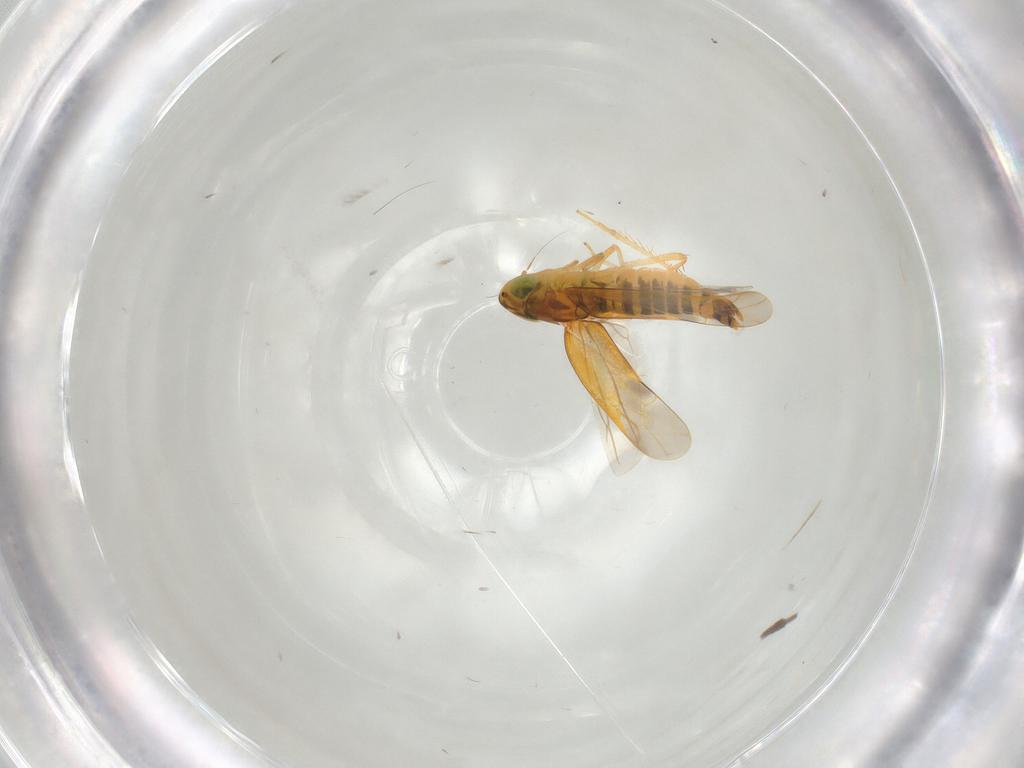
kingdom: Animalia
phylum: Arthropoda
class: Insecta
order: Hemiptera
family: Cicadellidae
